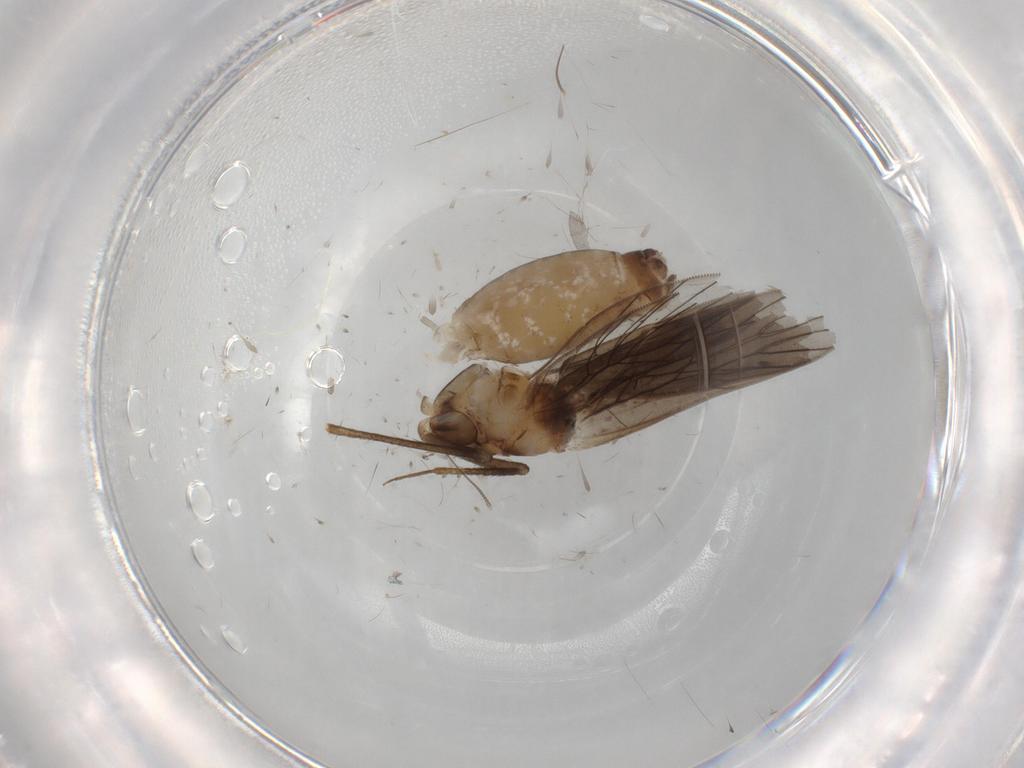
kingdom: Animalia
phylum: Arthropoda
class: Insecta
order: Psocodea
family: Lepidopsocidae
